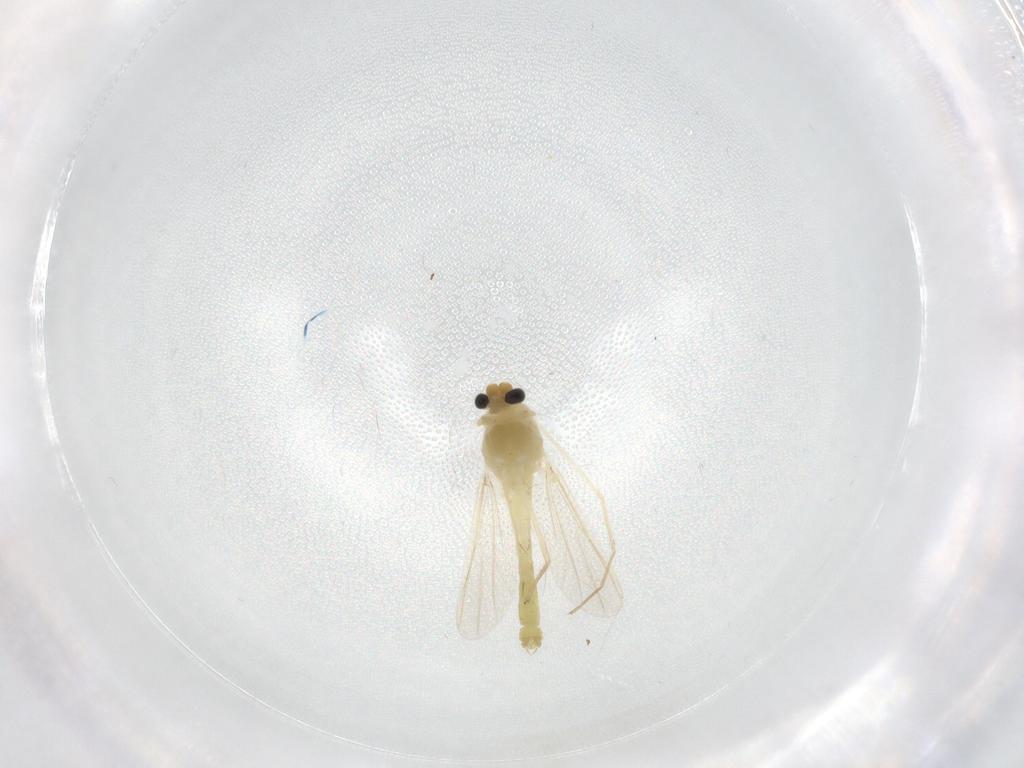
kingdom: Animalia
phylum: Arthropoda
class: Insecta
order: Diptera
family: Chironomidae
